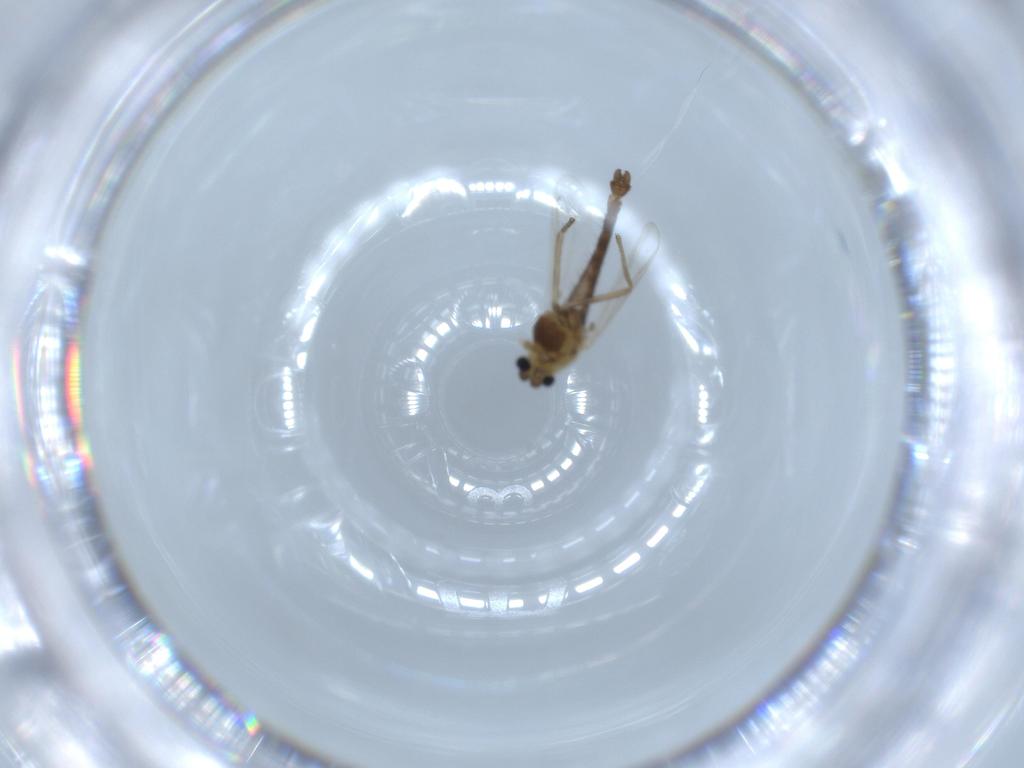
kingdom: Animalia
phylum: Arthropoda
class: Insecta
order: Diptera
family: Chironomidae
